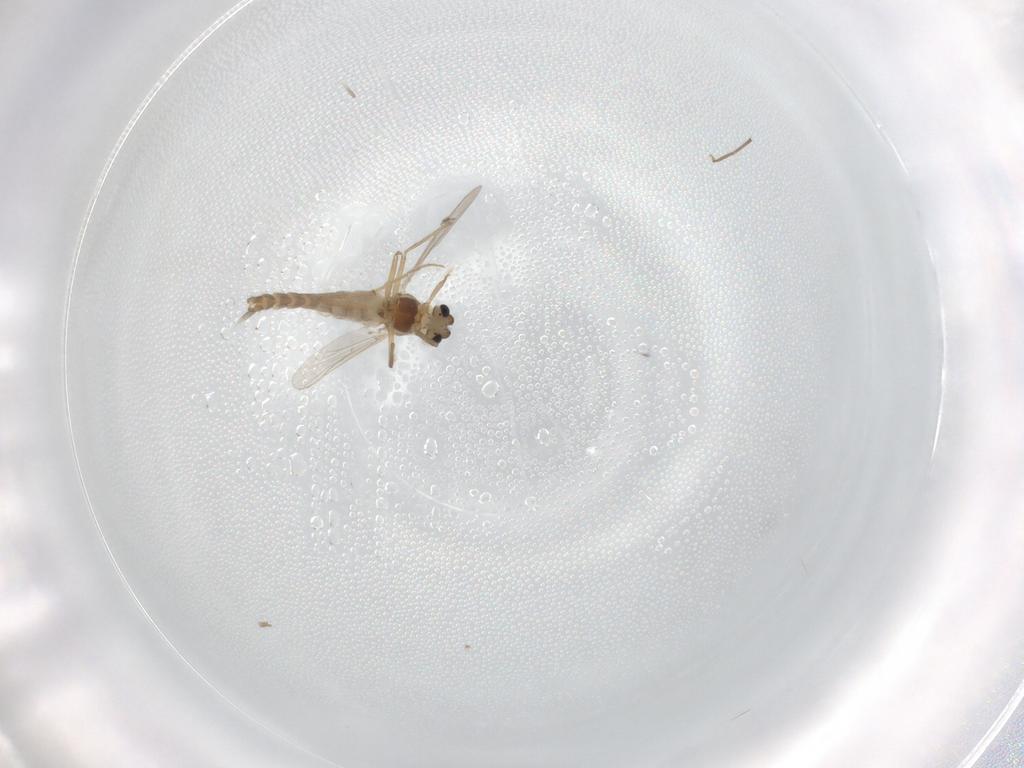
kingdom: Animalia
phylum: Arthropoda
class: Insecta
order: Diptera
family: Chironomidae
